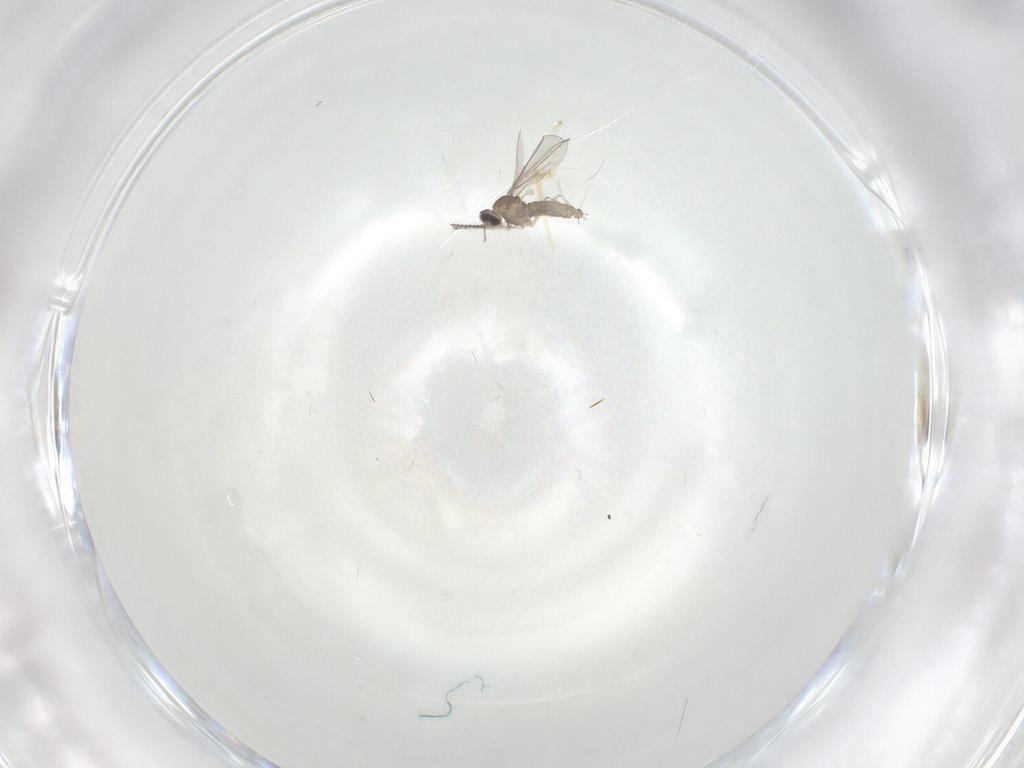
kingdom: Animalia
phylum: Arthropoda
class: Insecta
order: Diptera
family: Cecidomyiidae
